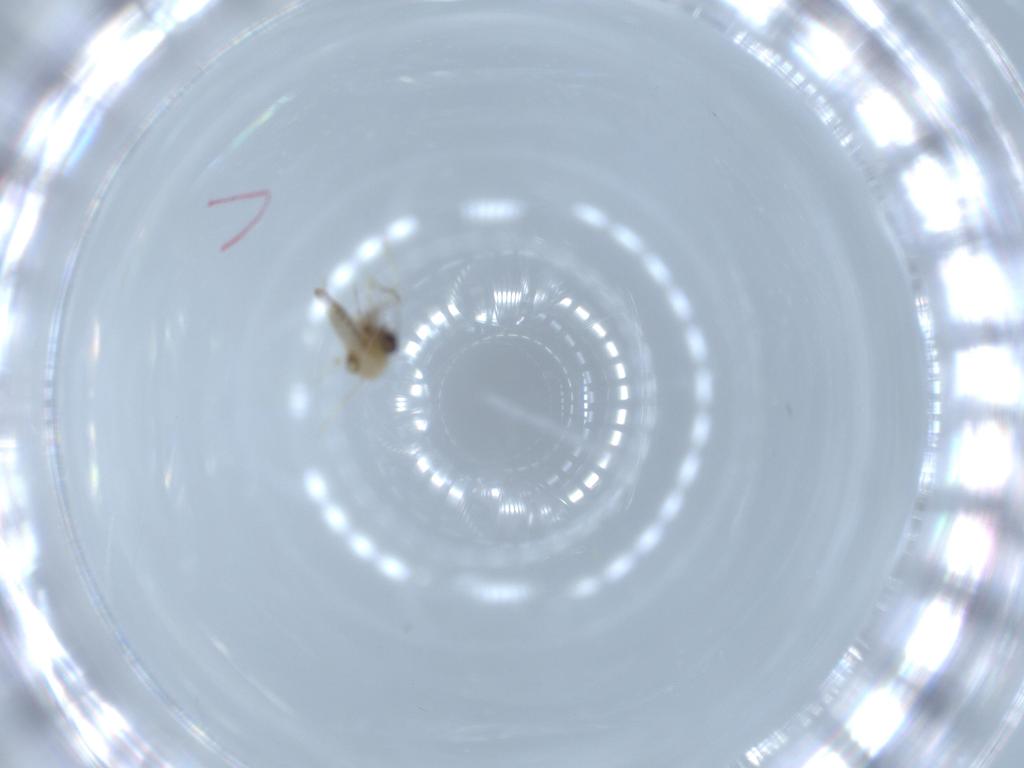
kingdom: Animalia
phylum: Arthropoda
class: Insecta
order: Diptera
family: Ceratopogonidae
